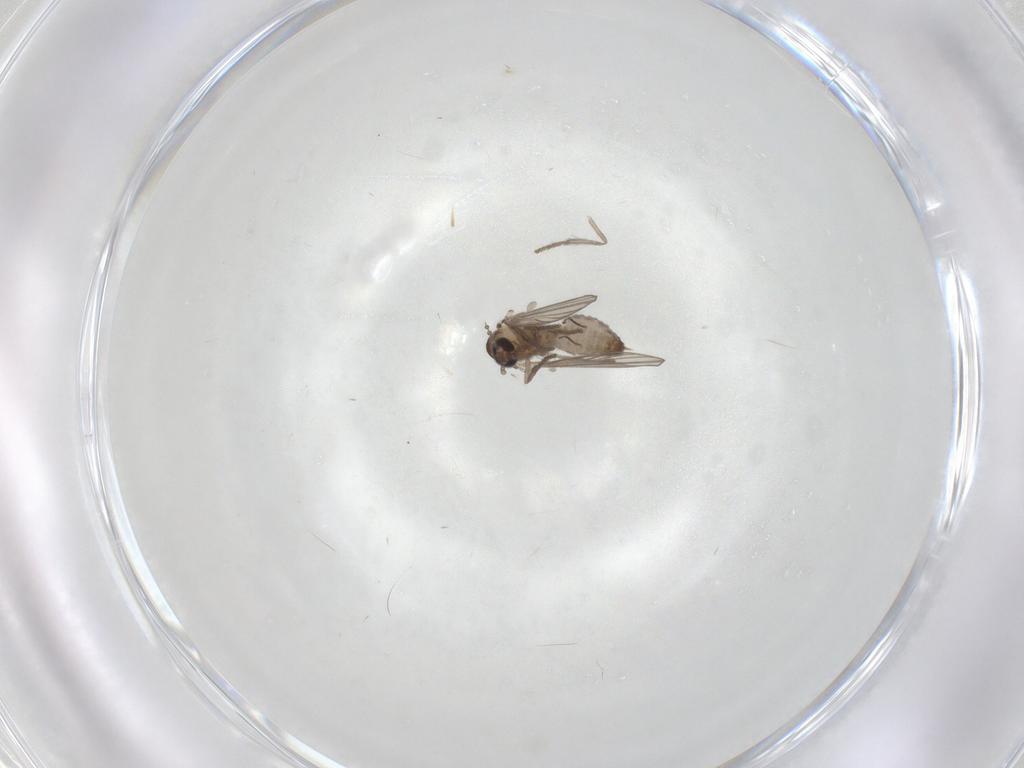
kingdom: Animalia
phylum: Arthropoda
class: Insecta
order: Diptera
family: Psychodidae
